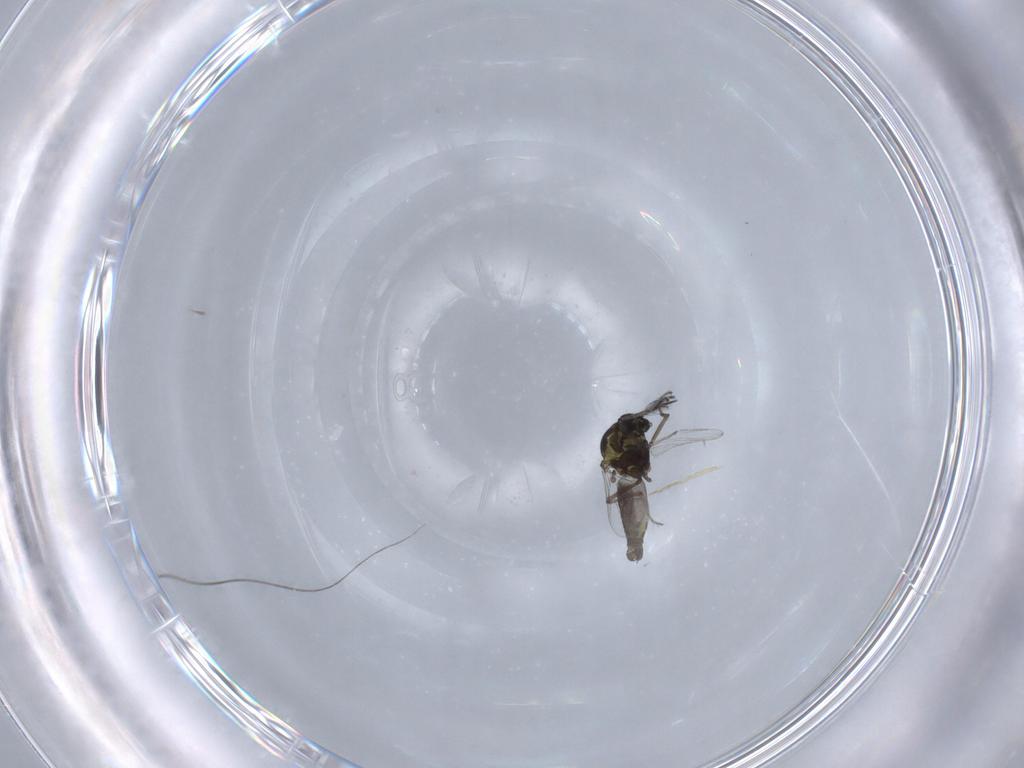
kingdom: Animalia
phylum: Arthropoda
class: Insecta
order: Diptera
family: Ceratopogonidae
